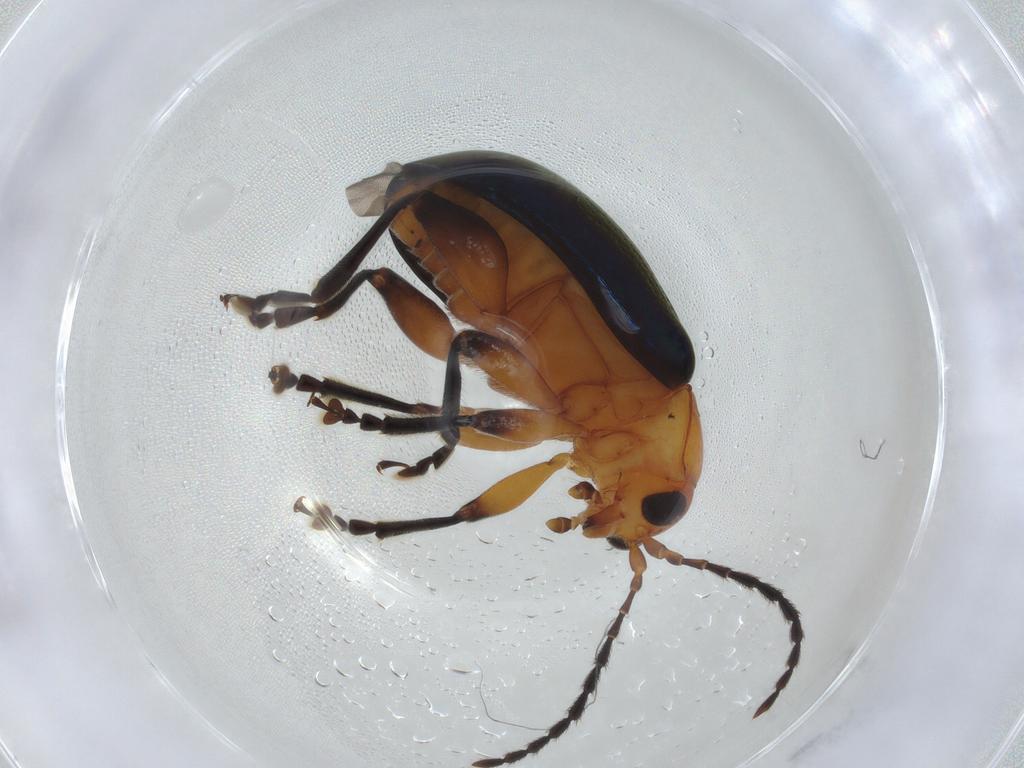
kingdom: Animalia
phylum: Arthropoda
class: Insecta
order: Coleoptera
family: Chrysomelidae
